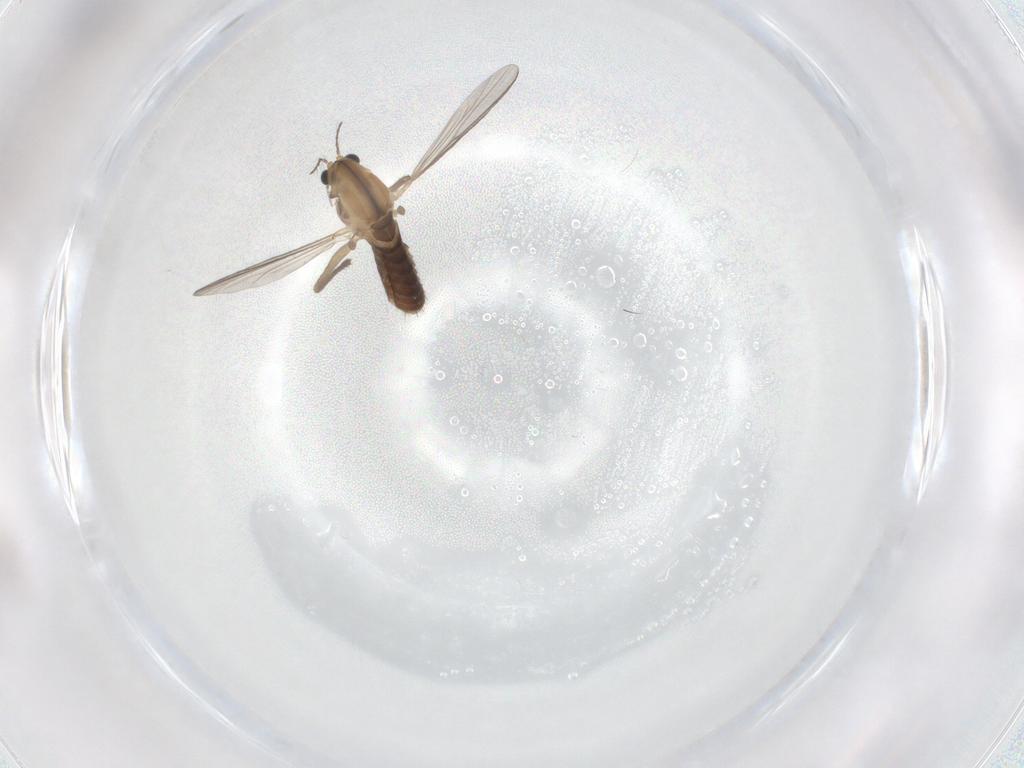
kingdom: Animalia
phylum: Arthropoda
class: Insecta
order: Diptera
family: Chironomidae
